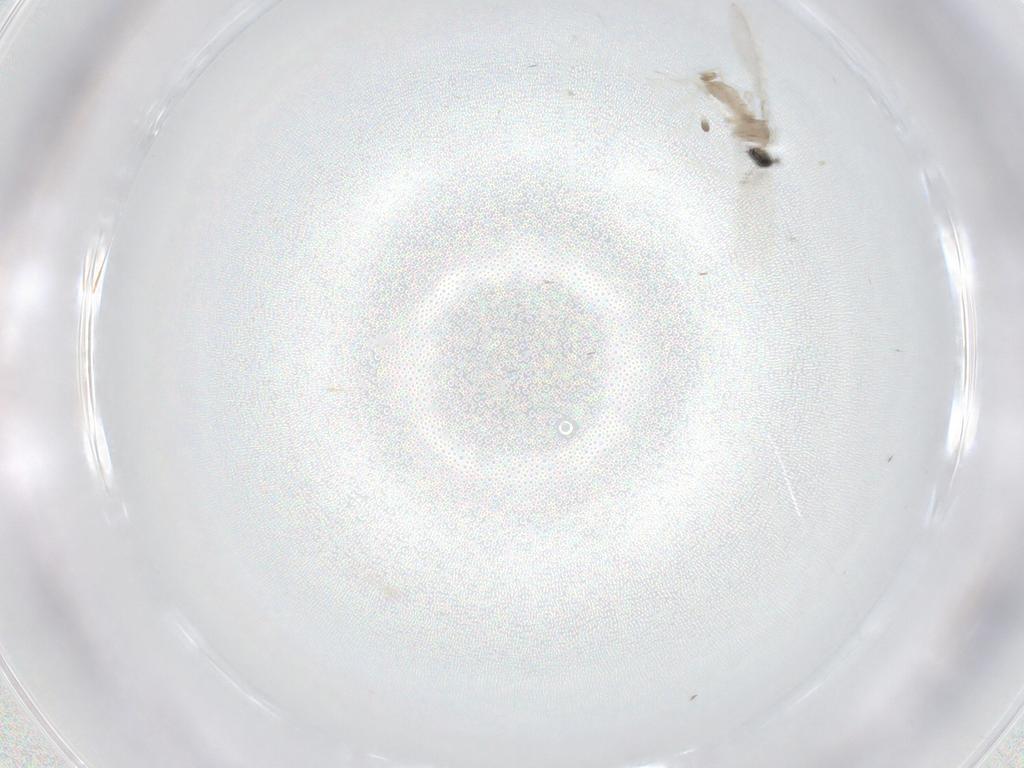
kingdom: Animalia
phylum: Arthropoda
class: Insecta
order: Diptera
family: Cecidomyiidae
